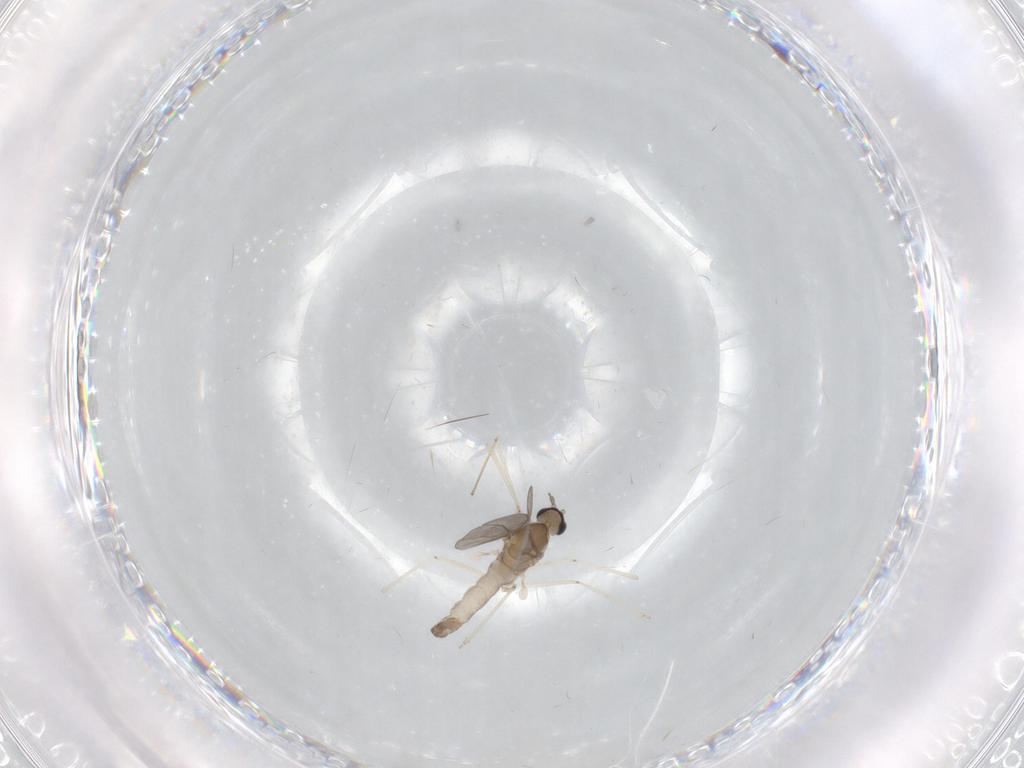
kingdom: Animalia
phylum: Arthropoda
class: Insecta
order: Diptera
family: Cecidomyiidae
